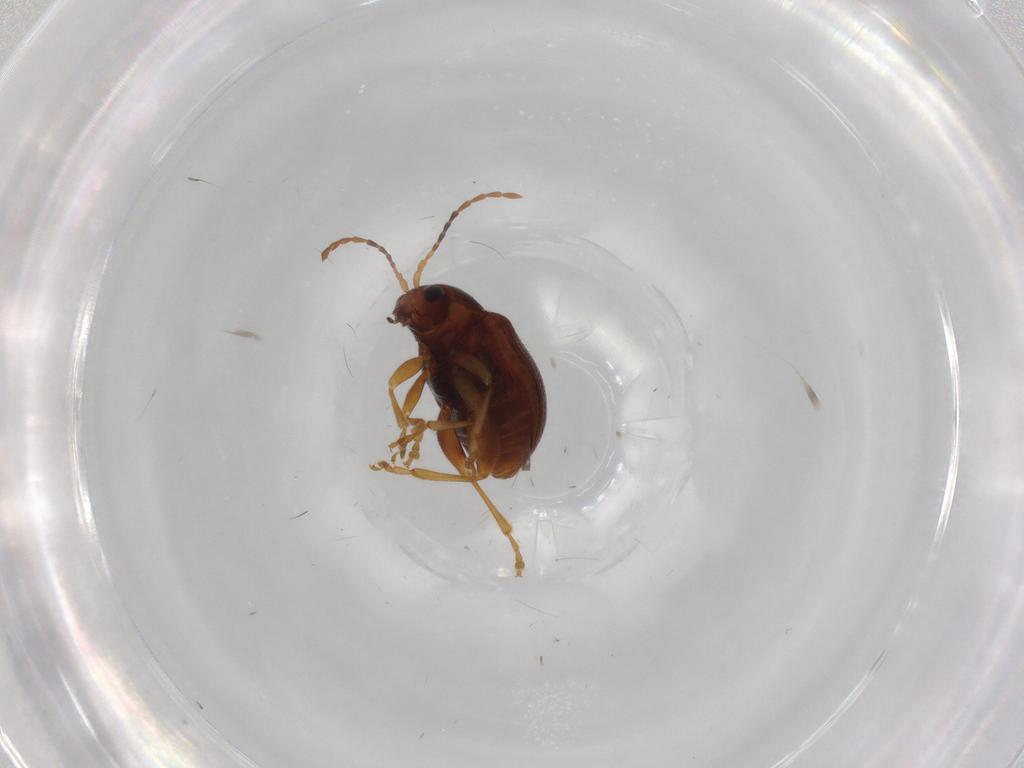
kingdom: Animalia
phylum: Arthropoda
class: Insecta
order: Coleoptera
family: Chrysomelidae
